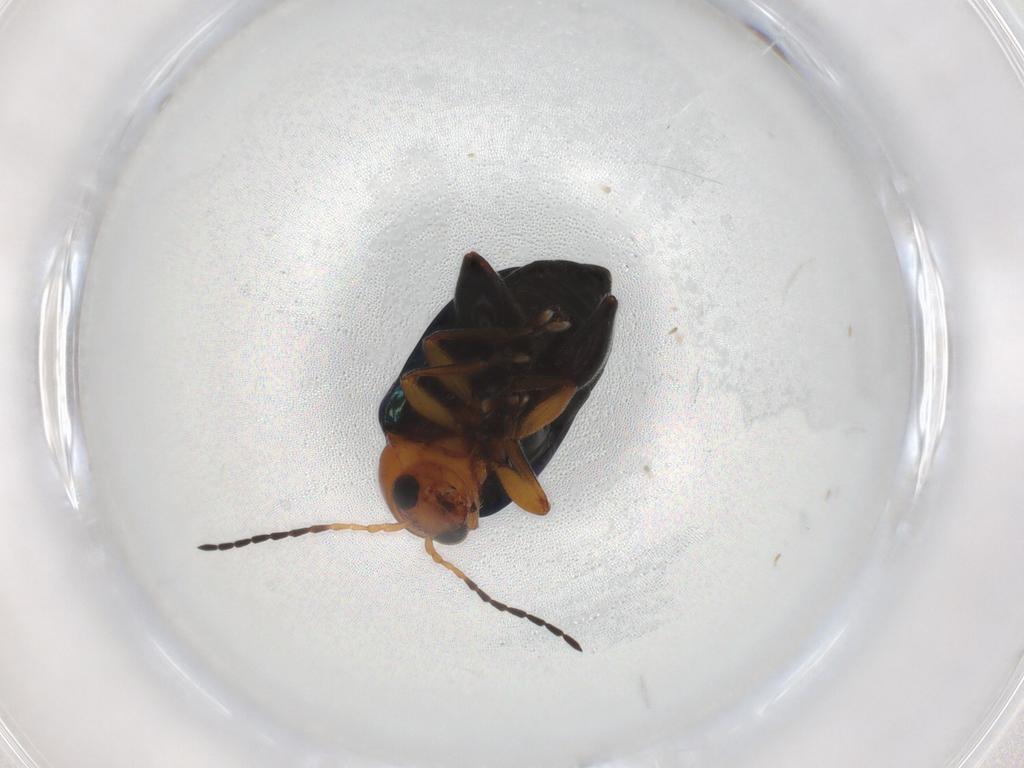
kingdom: Animalia
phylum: Arthropoda
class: Insecta
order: Coleoptera
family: Chrysomelidae
